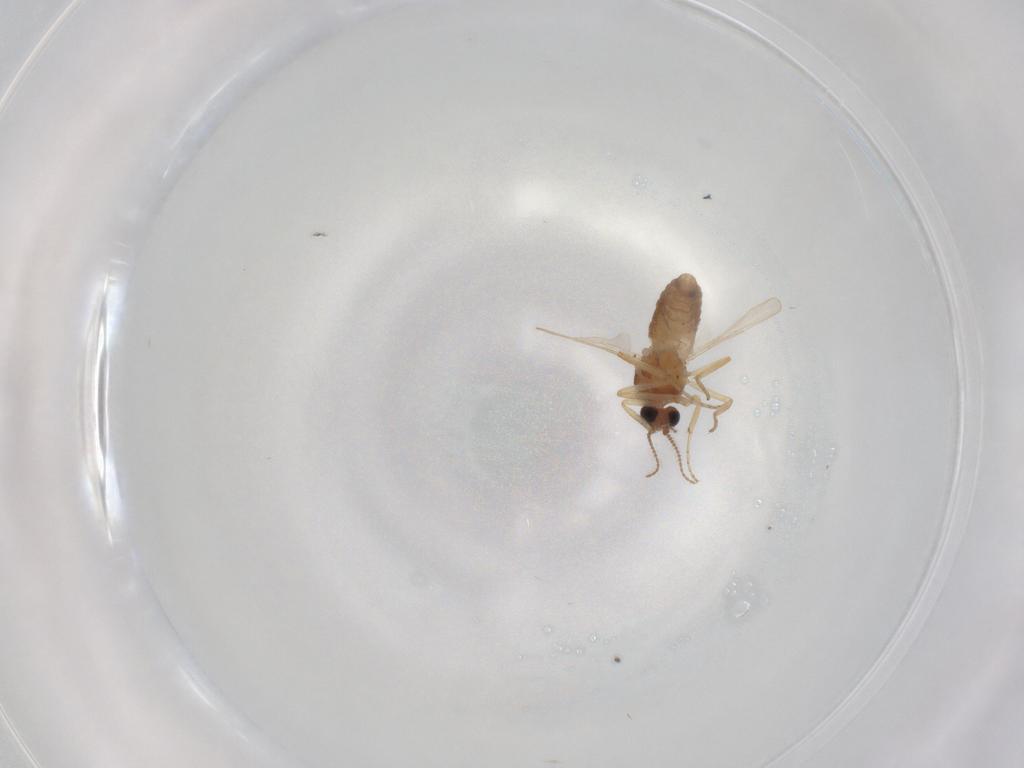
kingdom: Animalia
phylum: Arthropoda
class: Insecta
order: Diptera
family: Cecidomyiidae
